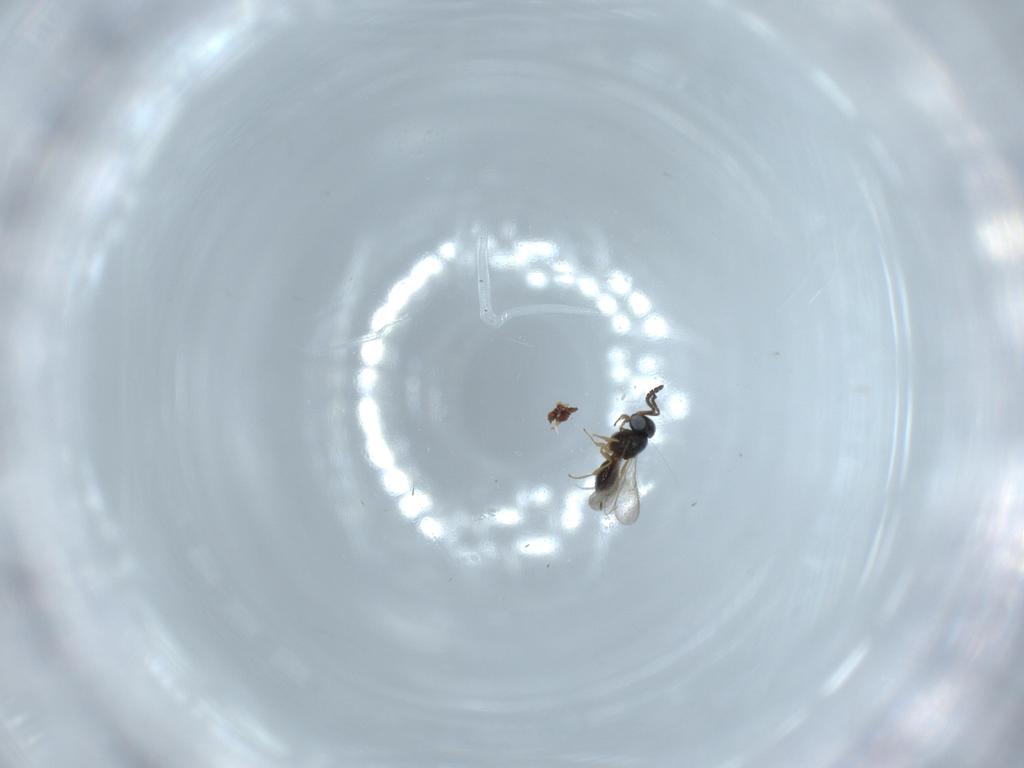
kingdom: Animalia
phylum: Arthropoda
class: Insecta
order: Hymenoptera
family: Scelionidae
